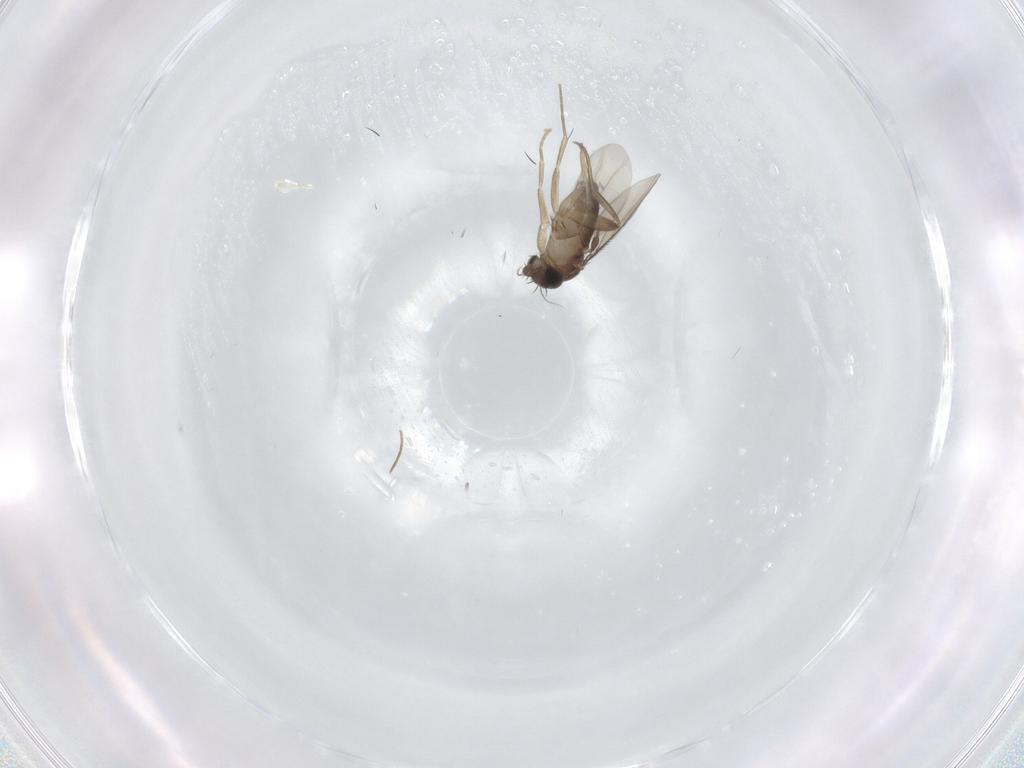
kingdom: Animalia
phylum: Arthropoda
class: Insecta
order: Diptera
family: Phoridae
